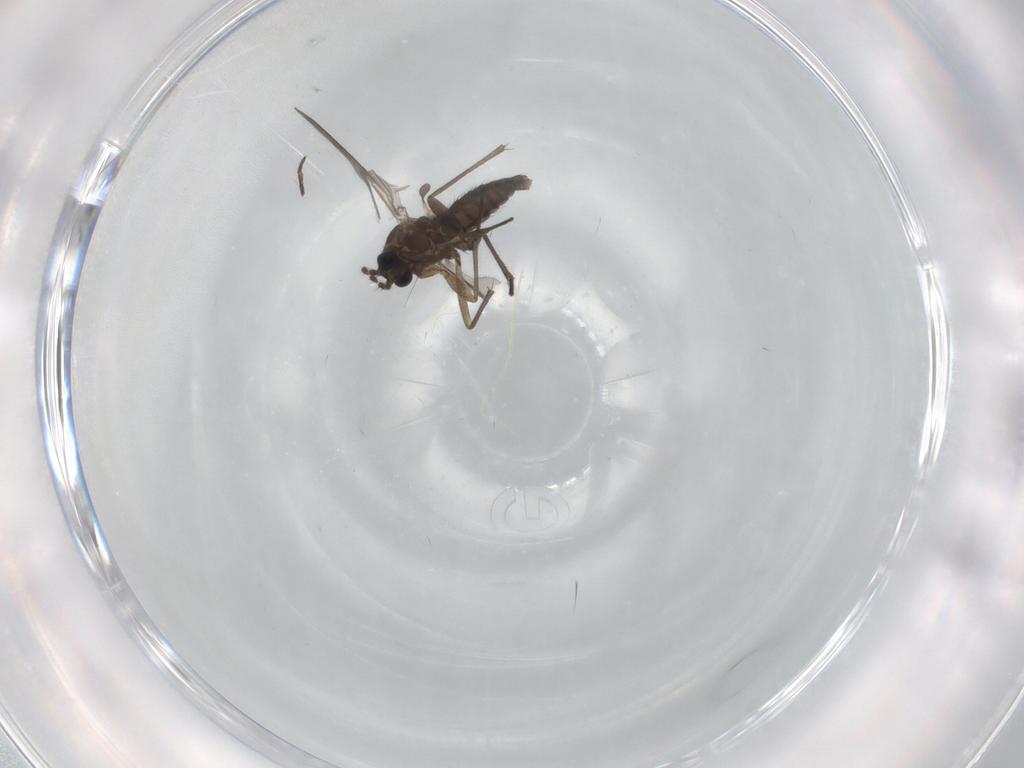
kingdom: Animalia
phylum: Arthropoda
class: Insecta
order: Diptera
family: Sciaridae
